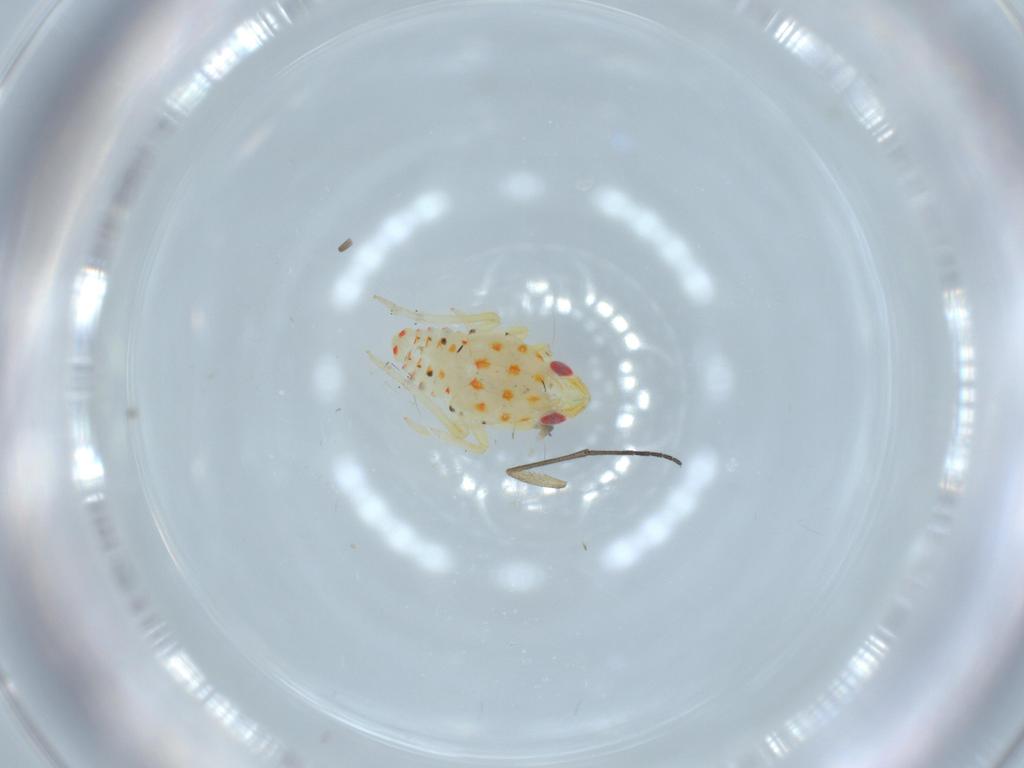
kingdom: Animalia
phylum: Arthropoda
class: Insecta
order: Hemiptera
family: Tropiduchidae
